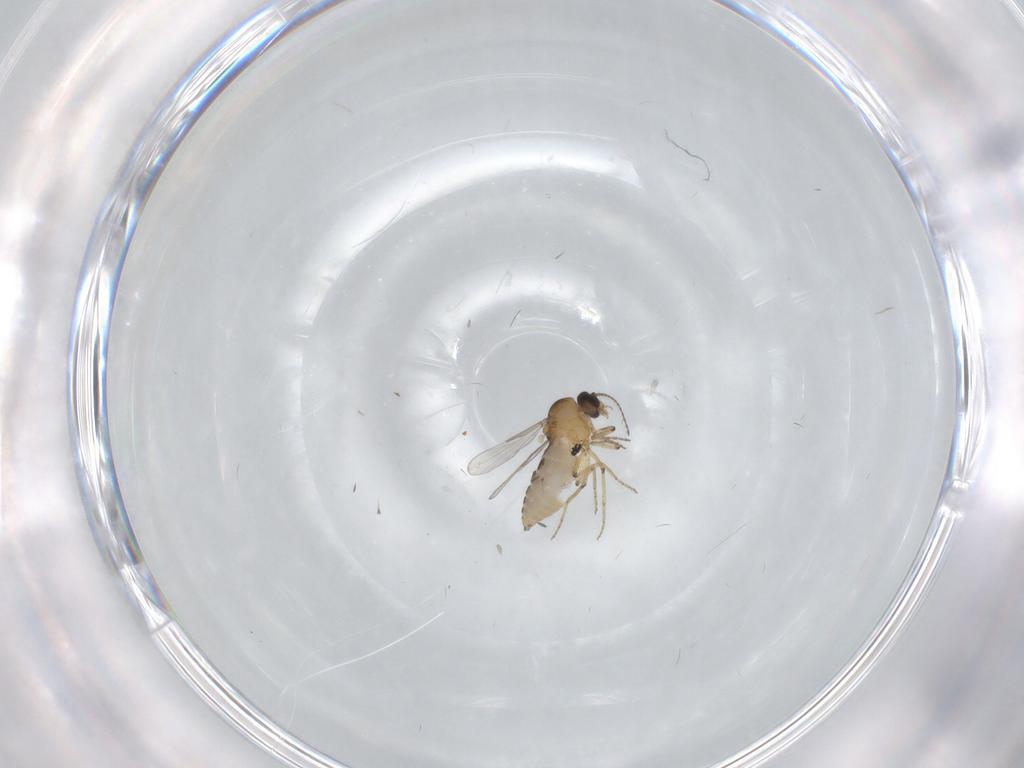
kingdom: Animalia
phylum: Arthropoda
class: Insecta
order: Diptera
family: Ceratopogonidae
